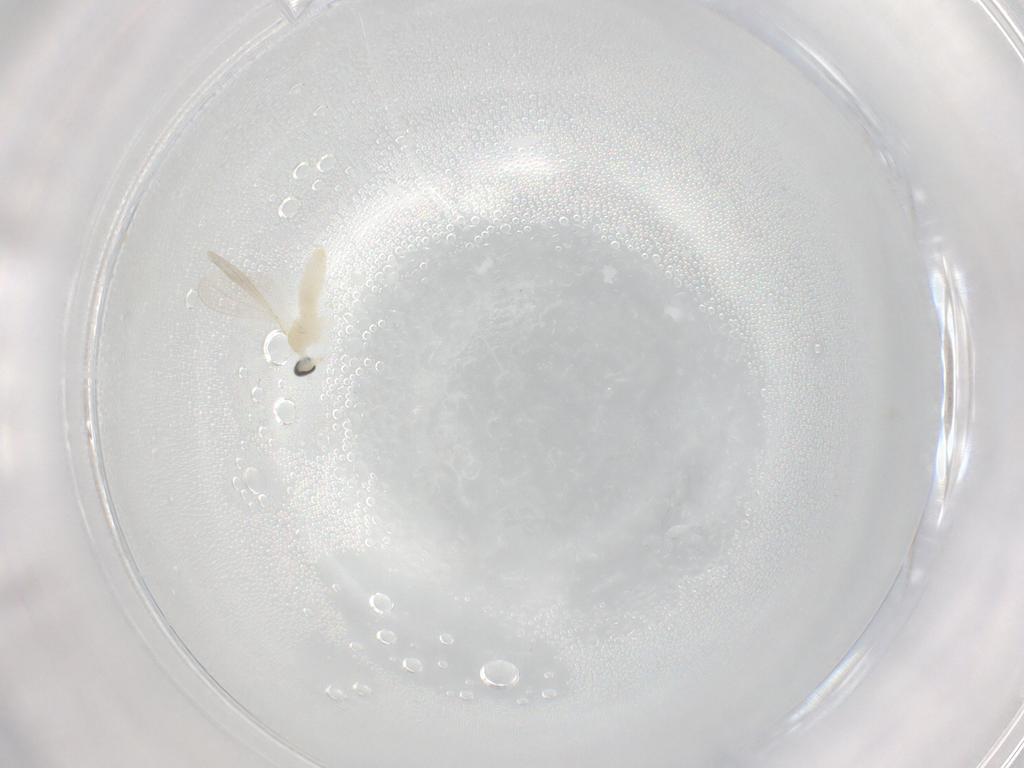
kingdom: Animalia
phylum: Arthropoda
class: Insecta
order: Diptera
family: Cecidomyiidae
